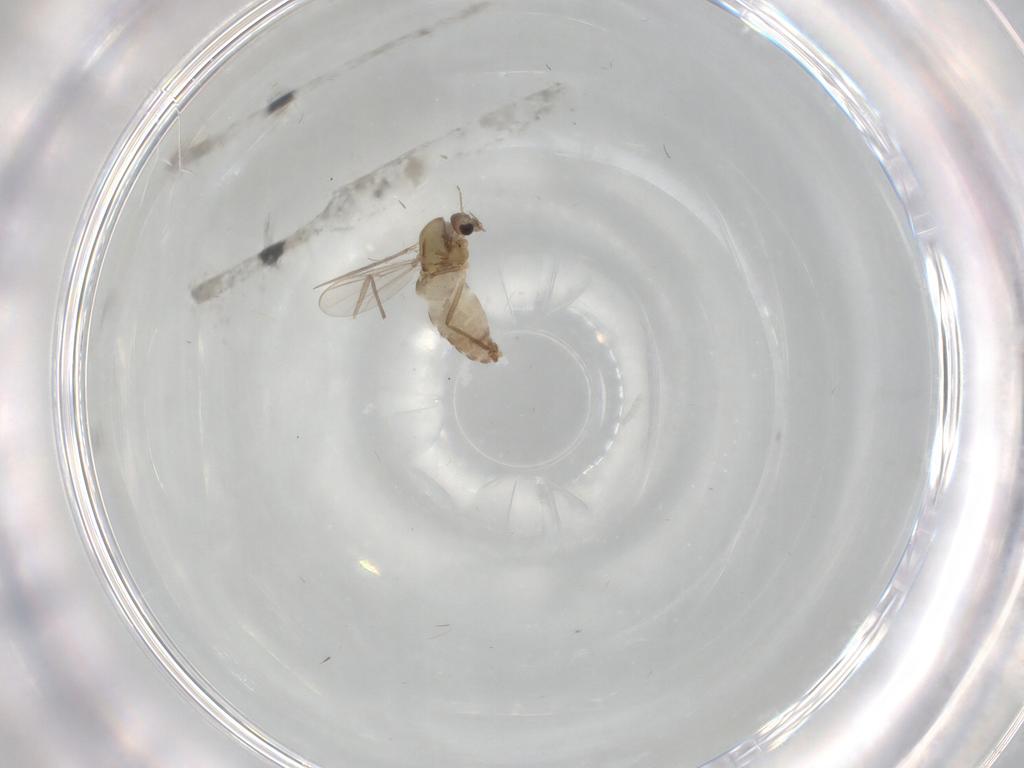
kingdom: Animalia
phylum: Arthropoda
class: Insecta
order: Diptera
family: Chironomidae
